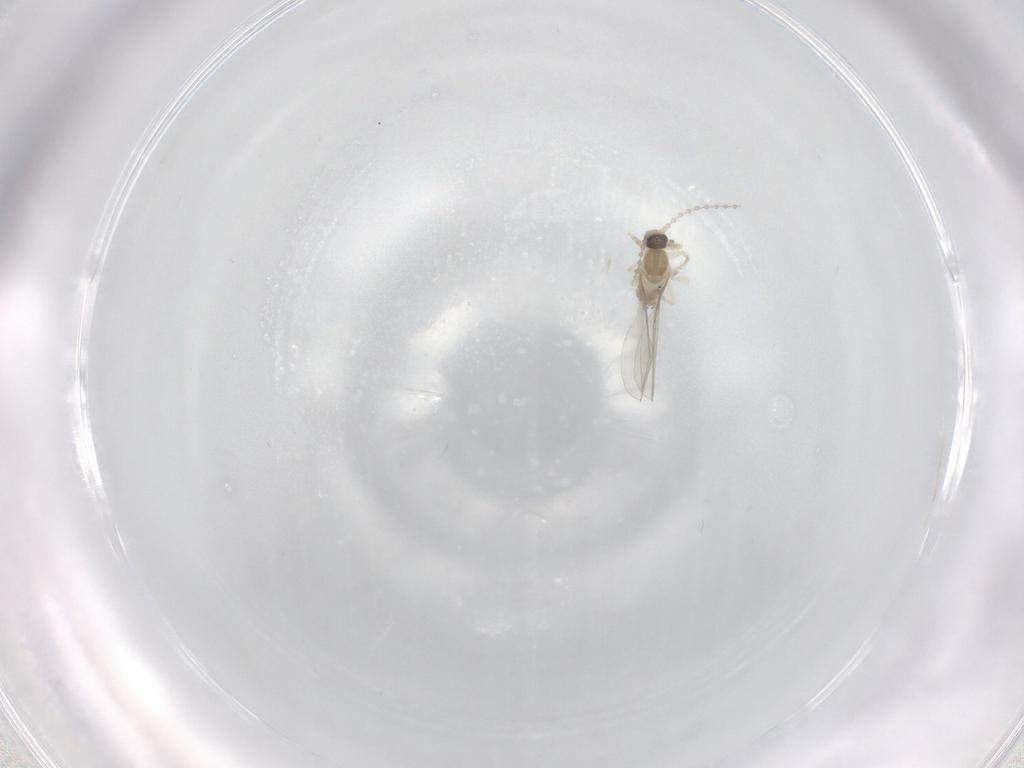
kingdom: Animalia
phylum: Arthropoda
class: Insecta
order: Diptera
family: Cecidomyiidae
